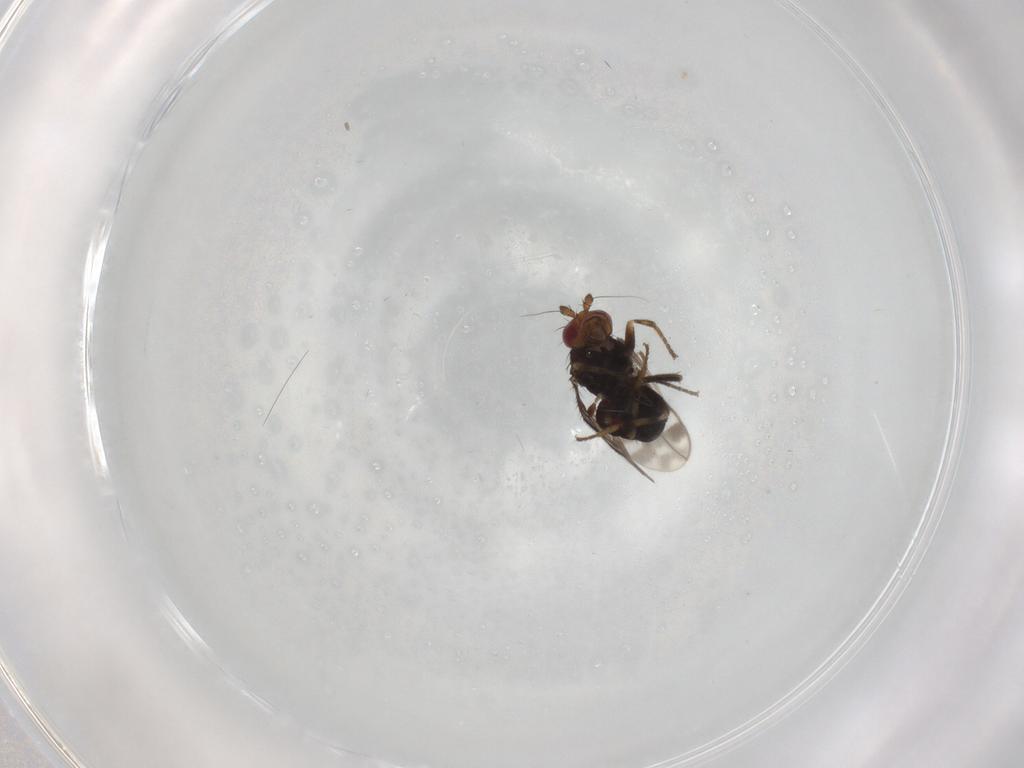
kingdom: Animalia
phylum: Arthropoda
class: Insecta
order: Diptera
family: Sphaeroceridae
